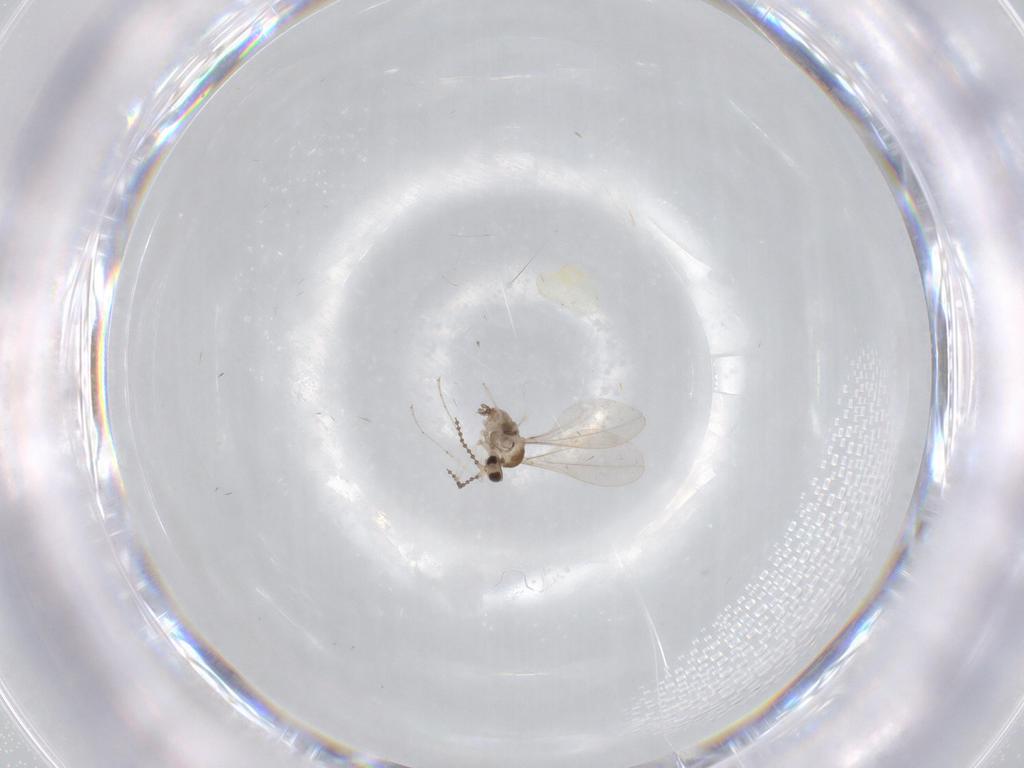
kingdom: Animalia
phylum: Arthropoda
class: Insecta
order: Diptera
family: Cecidomyiidae
